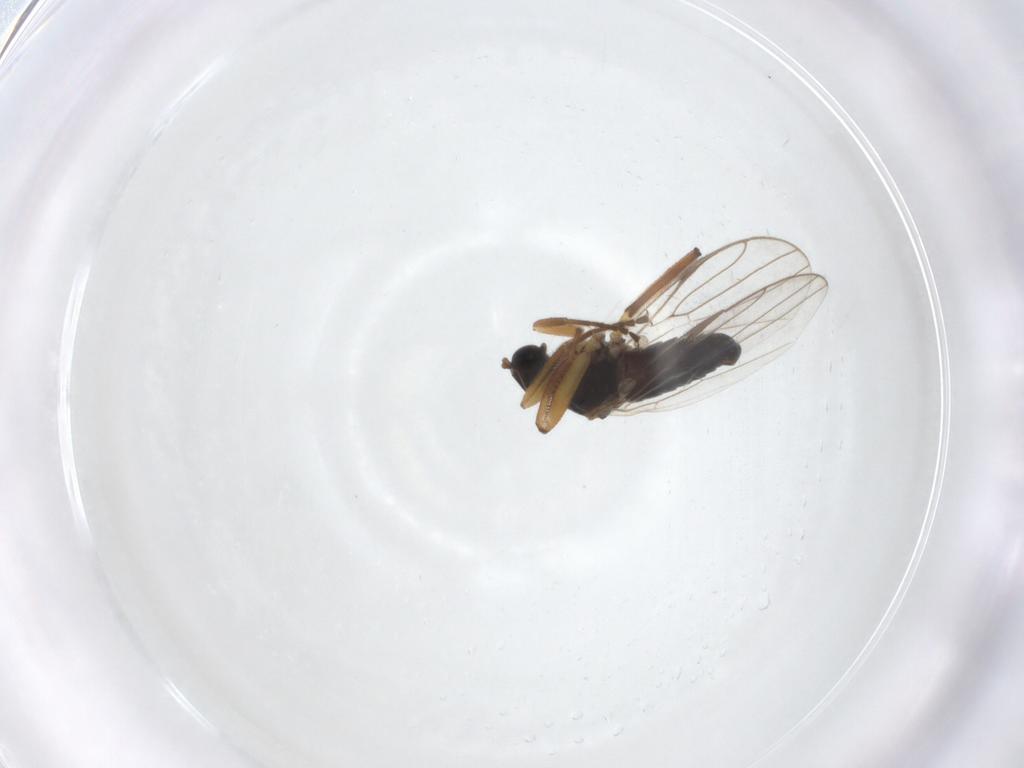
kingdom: Animalia
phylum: Arthropoda
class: Insecta
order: Diptera
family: Hybotidae
